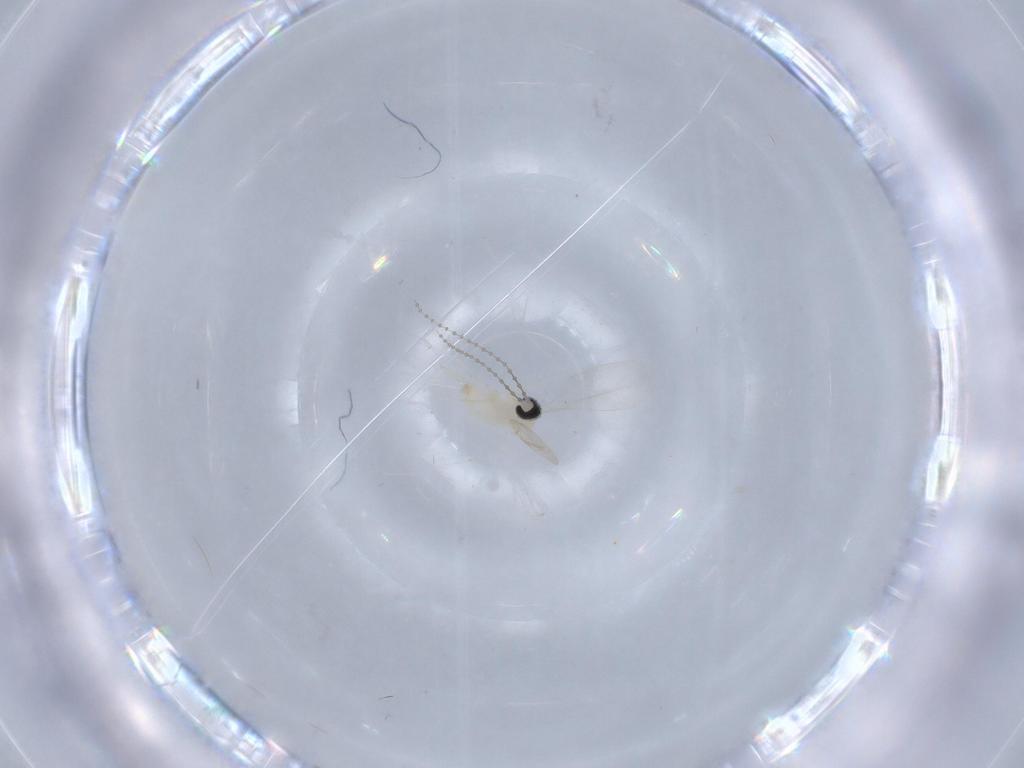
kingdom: Animalia
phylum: Arthropoda
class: Insecta
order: Diptera
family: Cecidomyiidae
